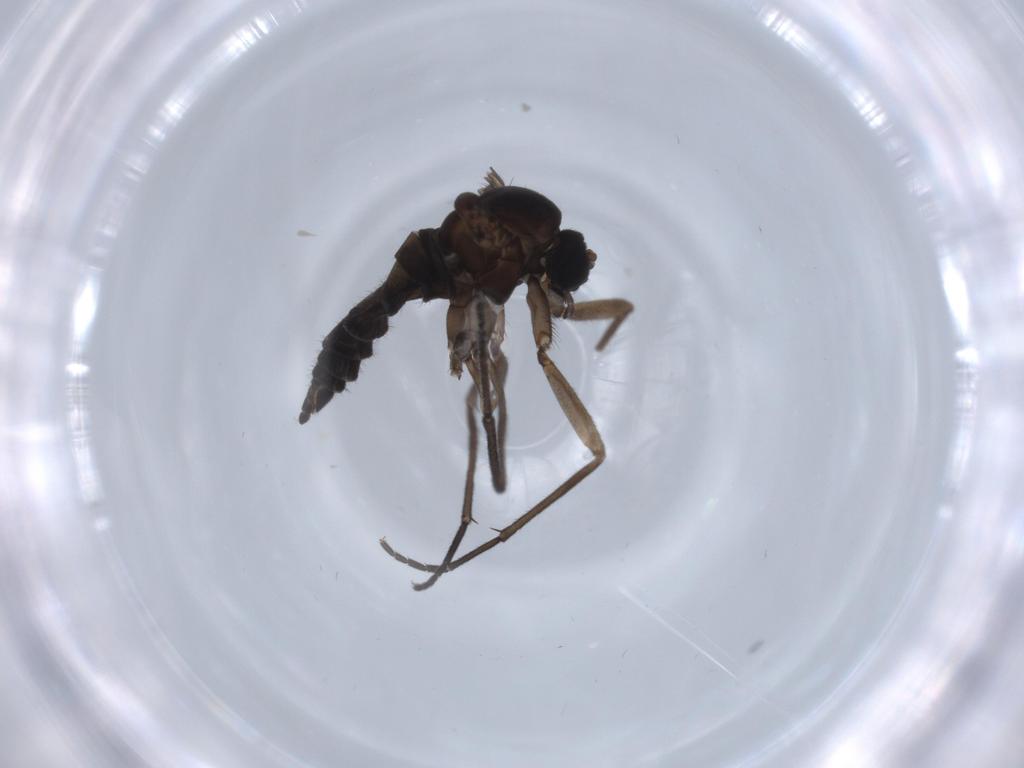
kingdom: Animalia
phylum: Arthropoda
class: Insecta
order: Diptera
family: Sciaridae
